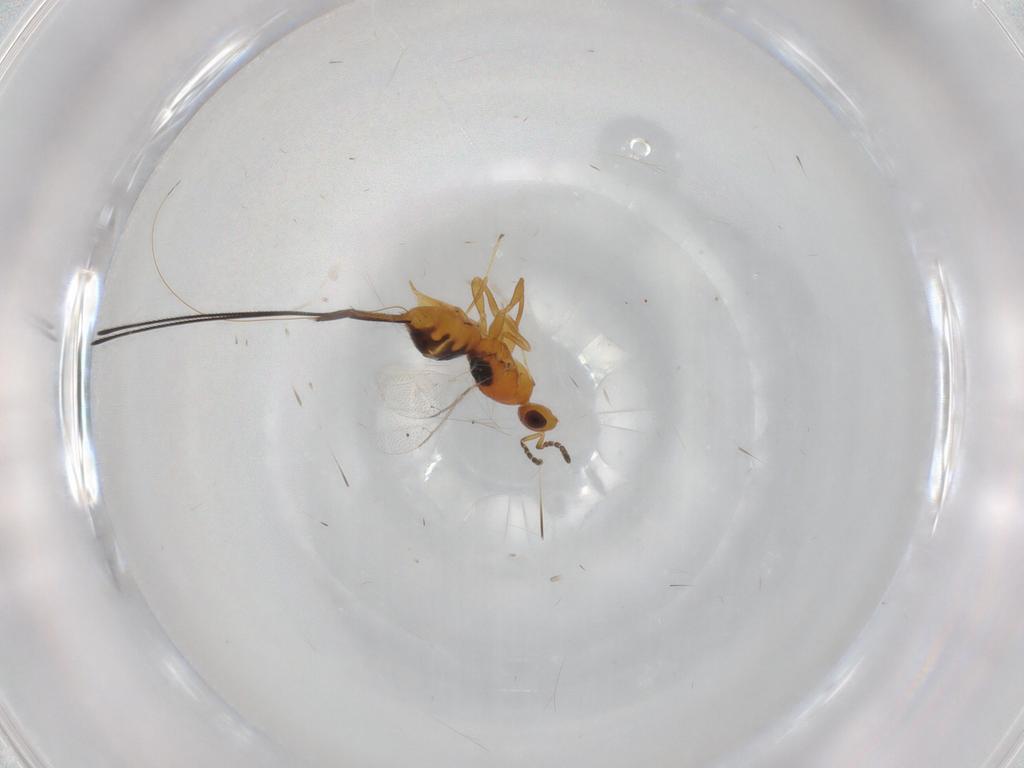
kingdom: Animalia
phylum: Arthropoda
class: Insecta
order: Hymenoptera
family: Pteromalidae
